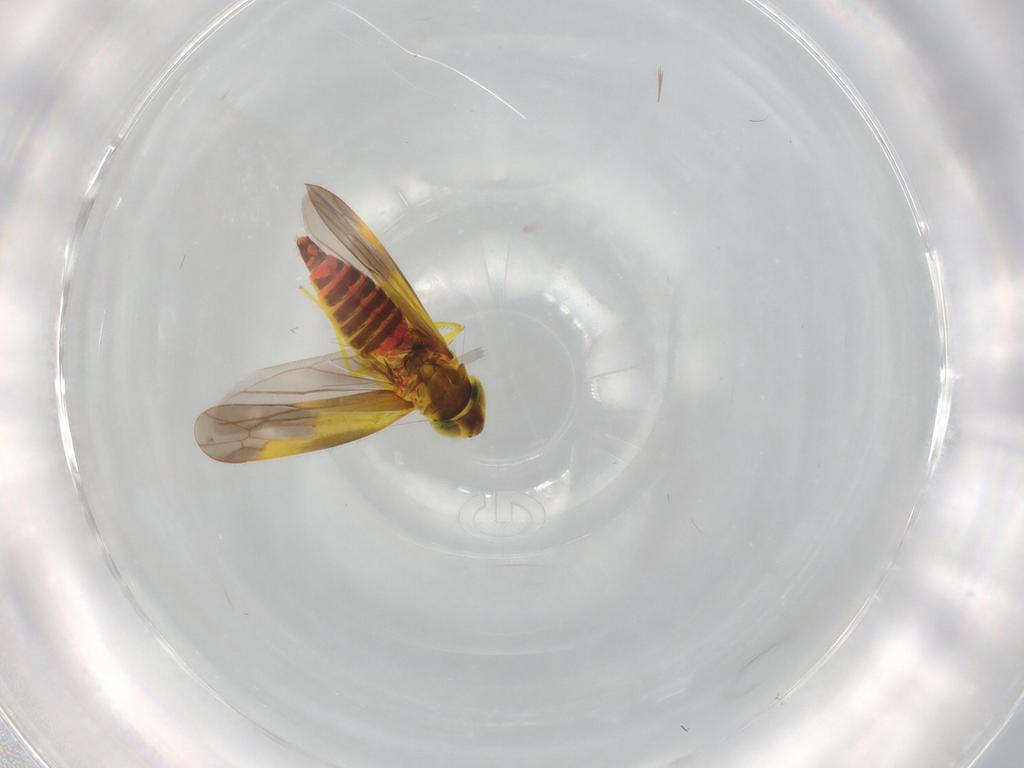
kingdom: Animalia
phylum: Arthropoda
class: Insecta
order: Hemiptera
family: Cicadellidae
